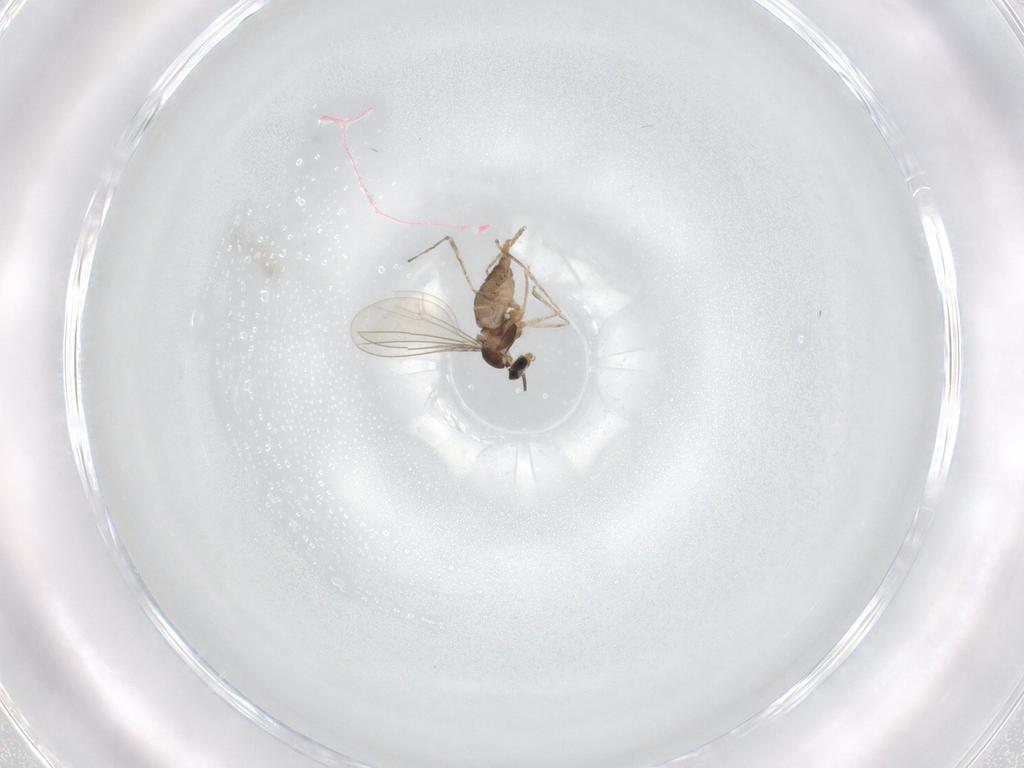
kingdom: Animalia
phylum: Arthropoda
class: Insecta
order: Diptera
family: Cecidomyiidae
